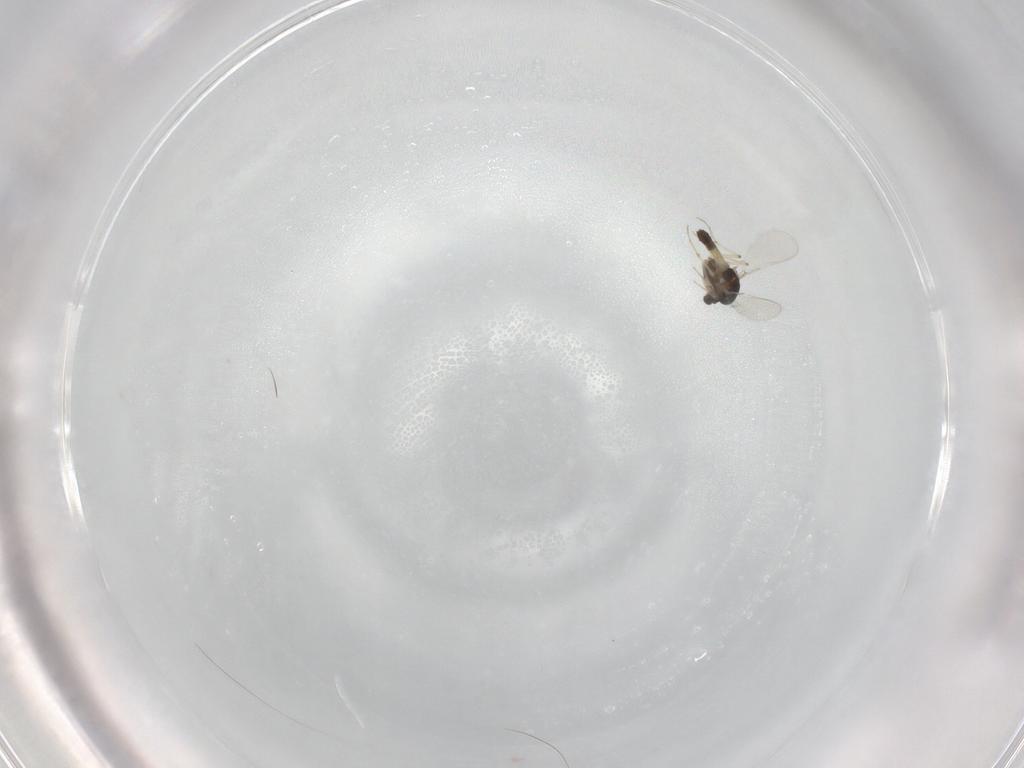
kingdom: Animalia
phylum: Arthropoda
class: Insecta
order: Diptera
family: Chironomidae
